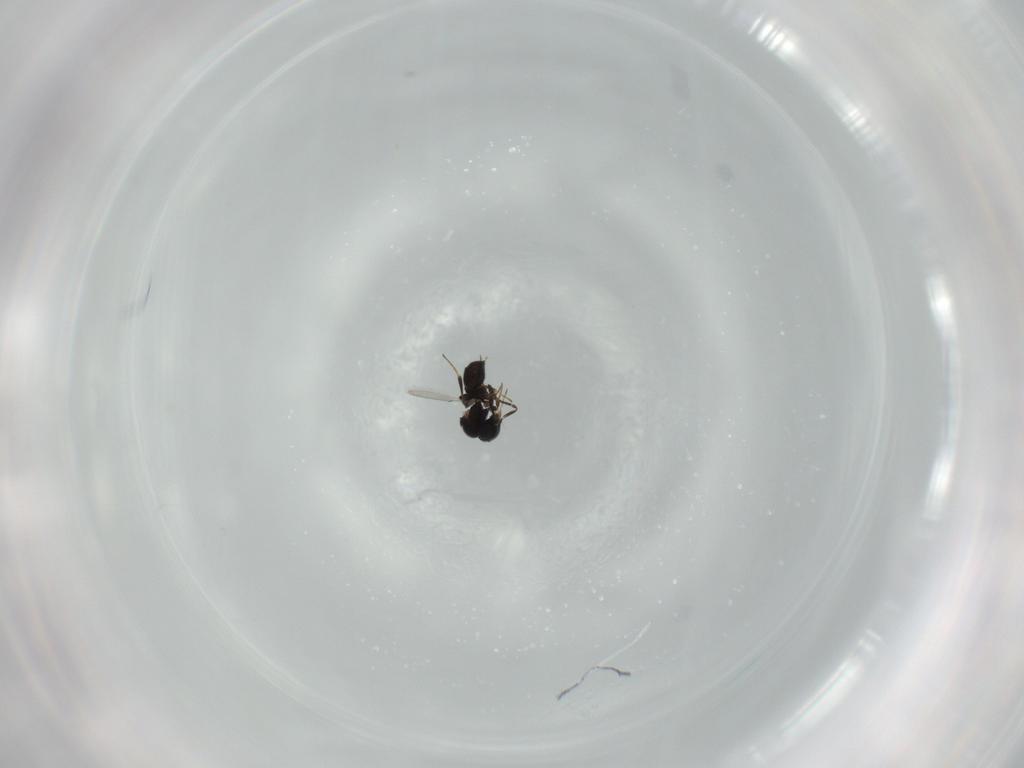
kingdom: Animalia
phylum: Arthropoda
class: Insecta
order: Hymenoptera
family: Scelionidae
